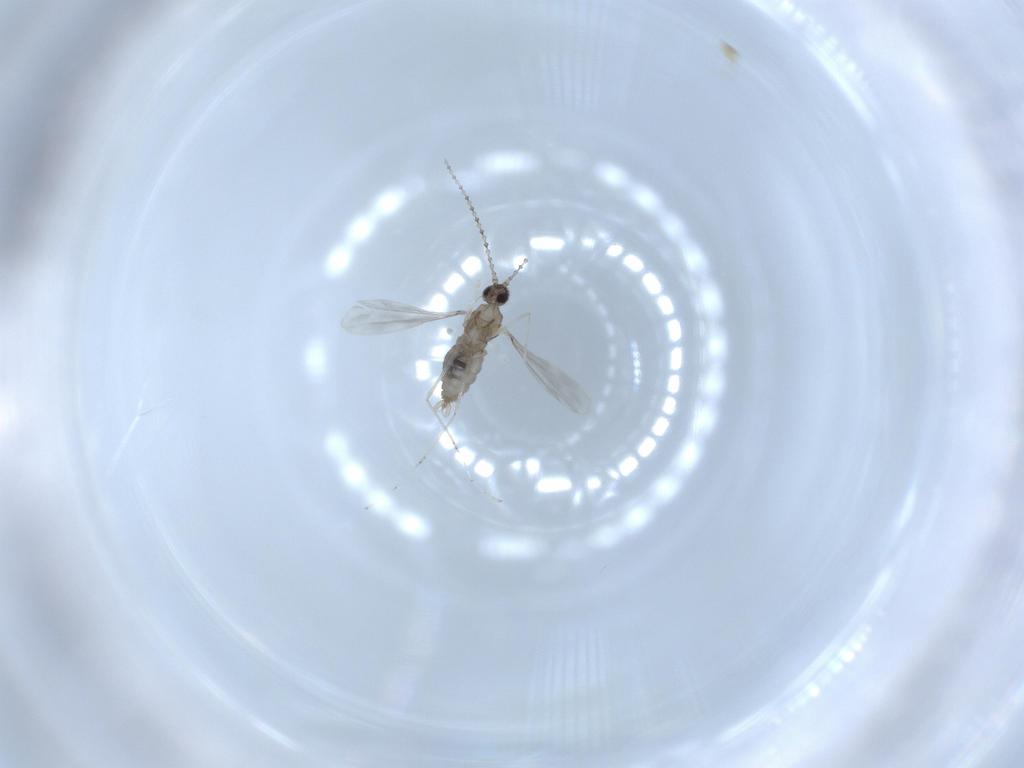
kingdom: Animalia
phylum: Arthropoda
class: Insecta
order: Diptera
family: Cecidomyiidae
